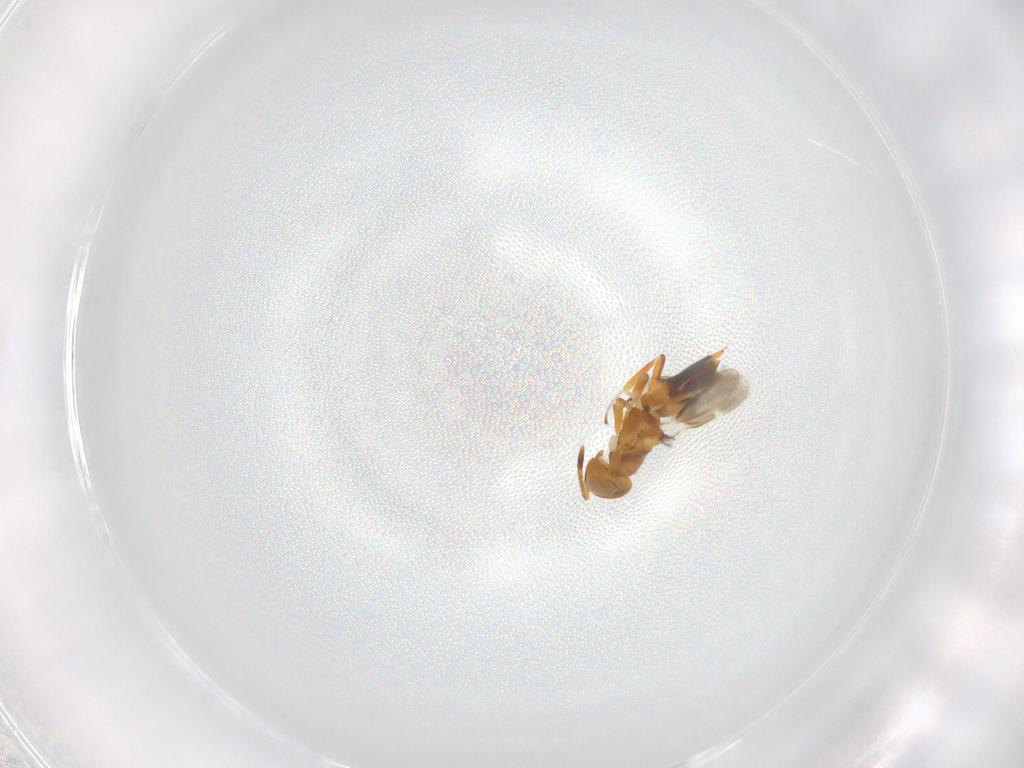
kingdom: Animalia
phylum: Arthropoda
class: Insecta
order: Hymenoptera
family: Encyrtidae
